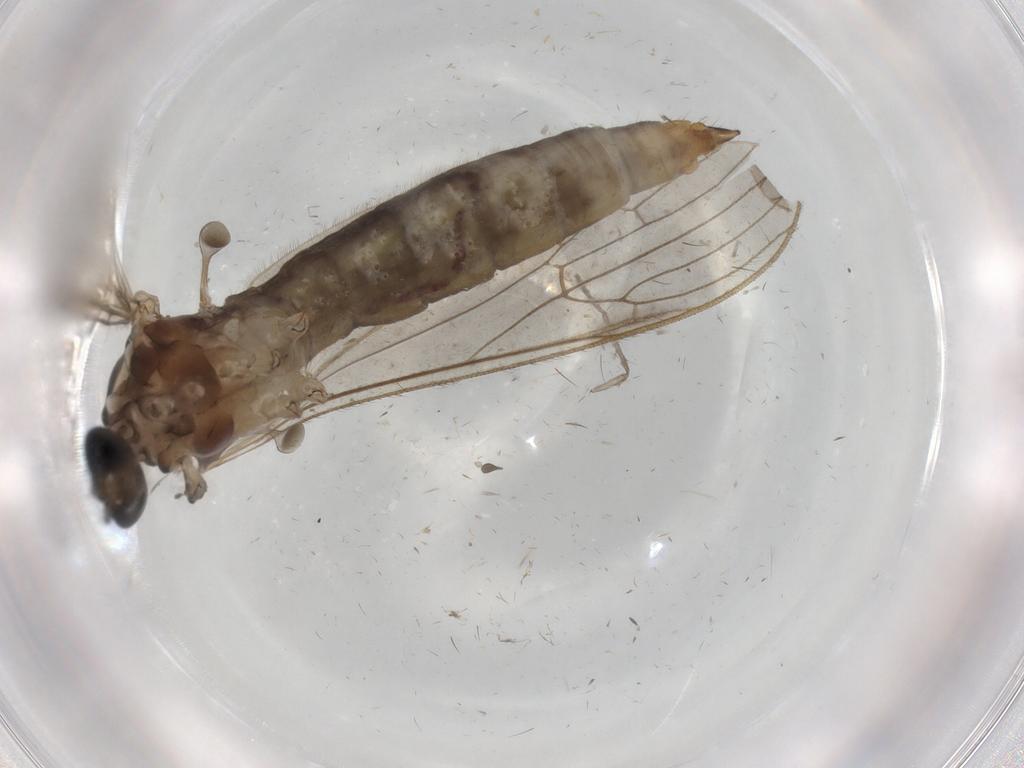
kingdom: Animalia
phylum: Arthropoda
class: Insecta
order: Diptera
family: Limoniidae
